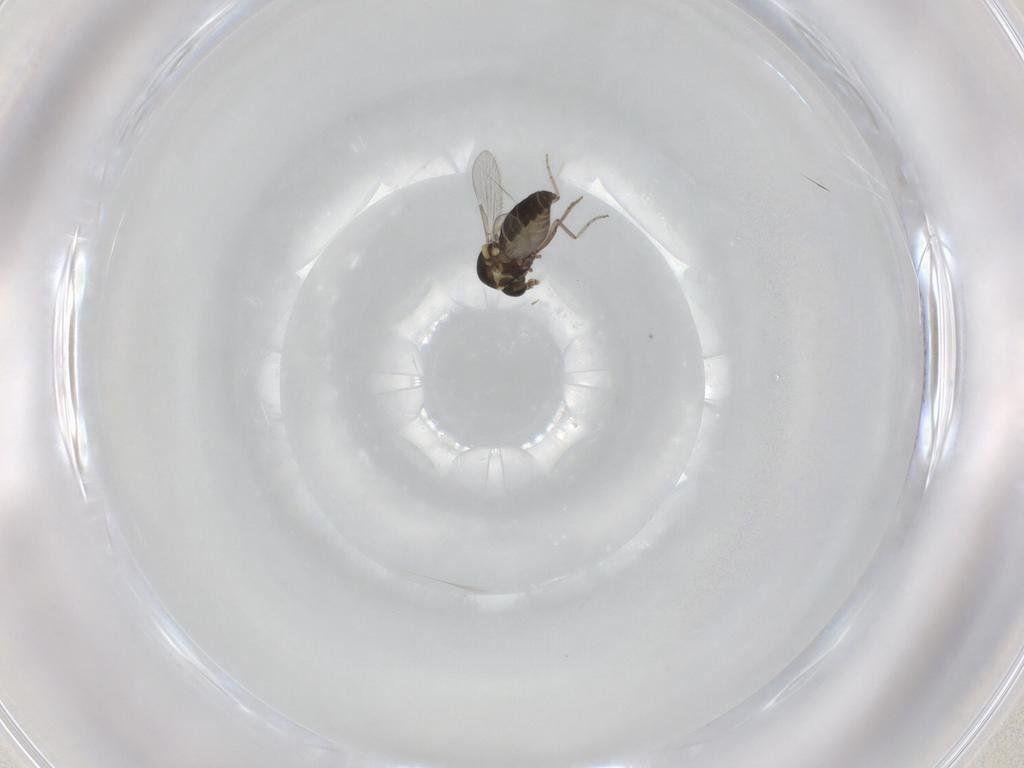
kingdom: Animalia
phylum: Arthropoda
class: Insecta
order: Diptera
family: Ceratopogonidae
